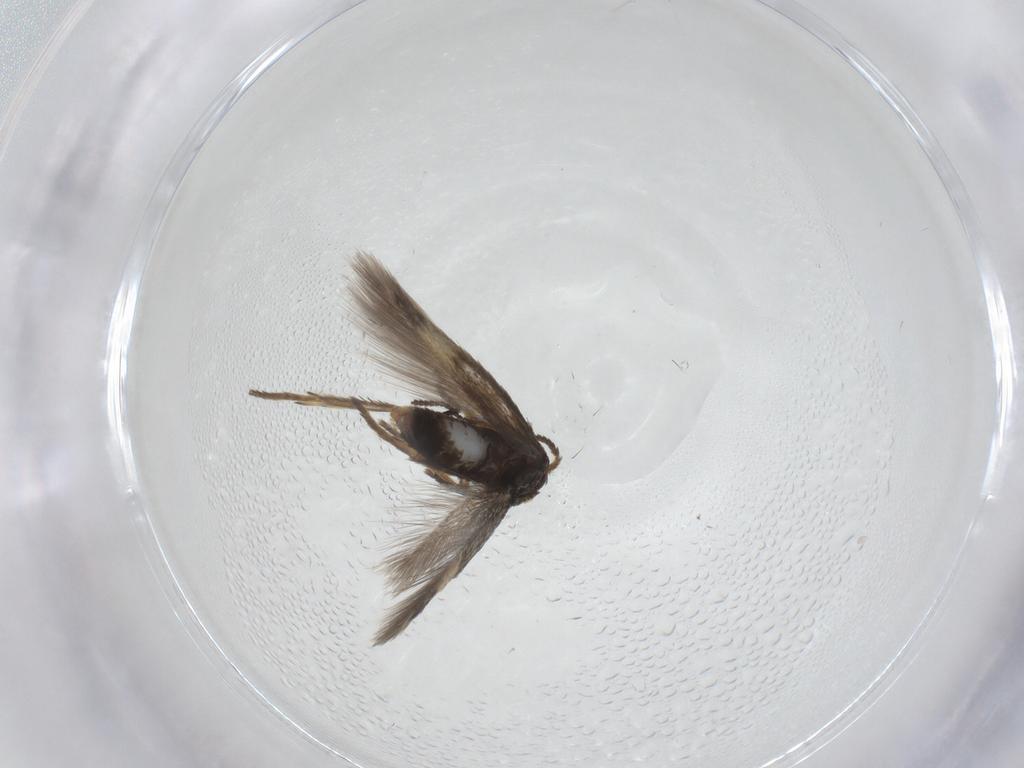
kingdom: Animalia
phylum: Arthropoda
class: Insecta
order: Lepidoptera
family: Nepticulidae
